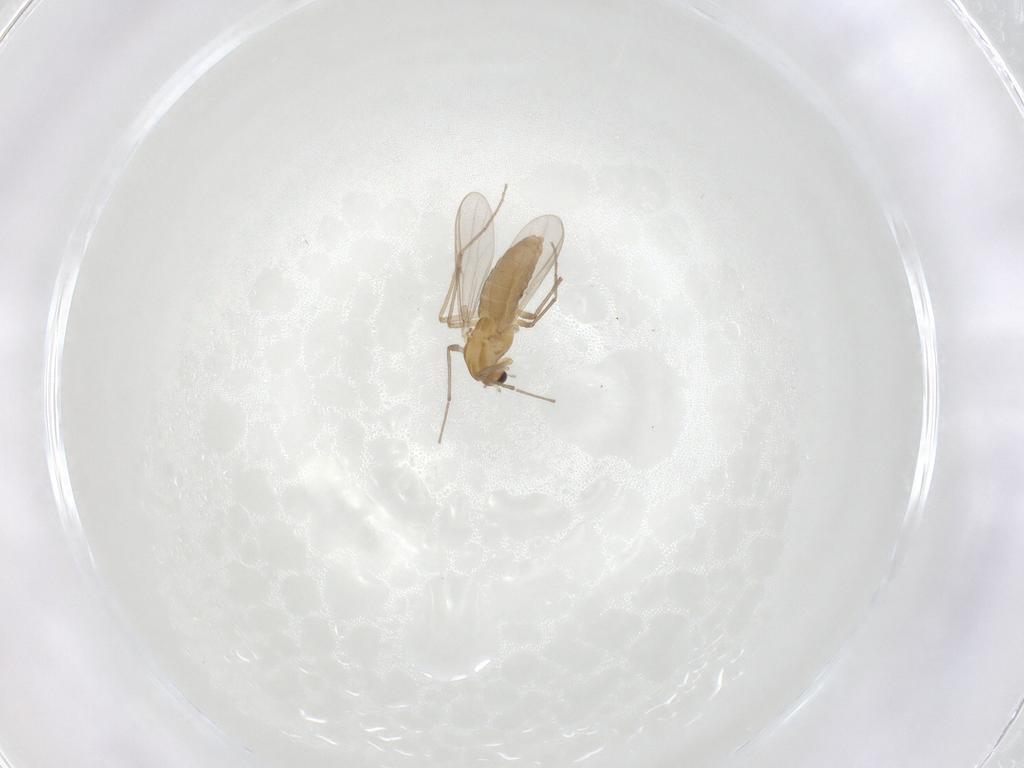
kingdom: Animalia
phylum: Arthropoda
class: Insecta
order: Diptera
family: Chironomidae
